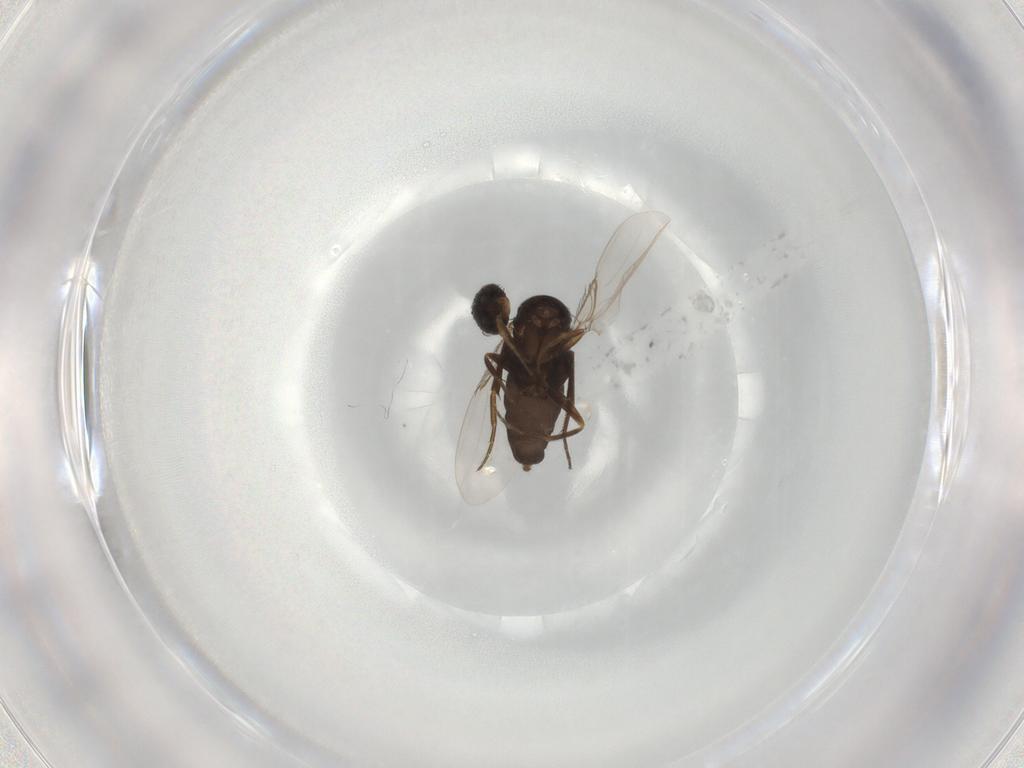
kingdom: Animalia
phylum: Arthropoda
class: Insecta
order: Diptera
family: Phoridae
